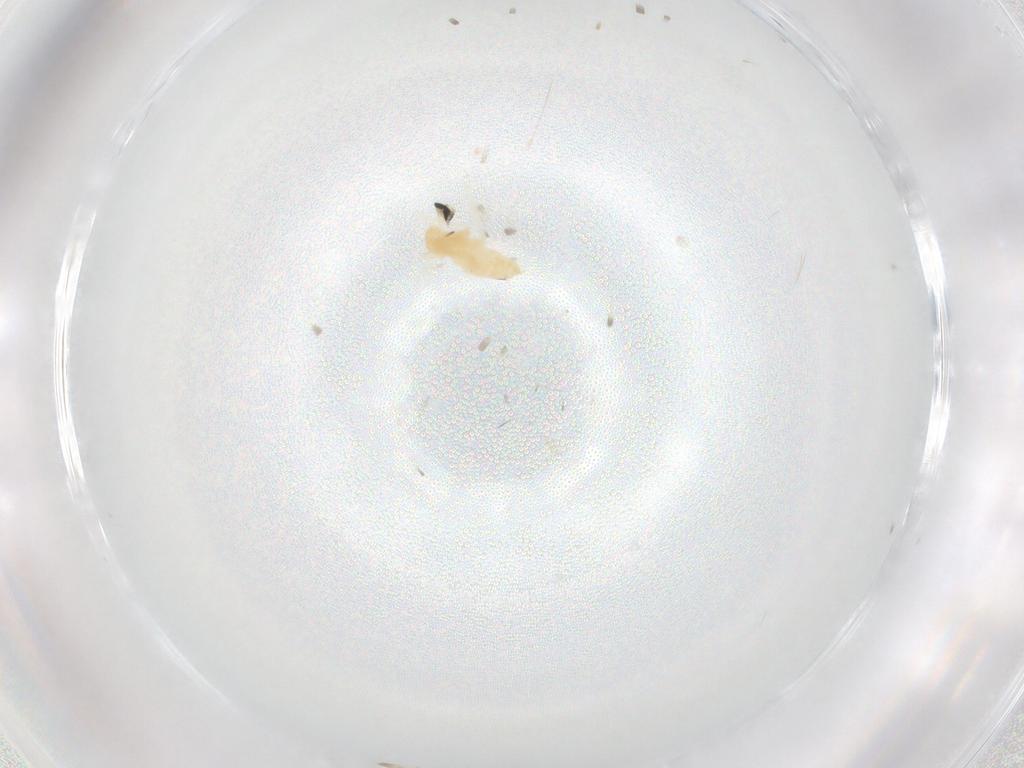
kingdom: Animalia
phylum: Arthropoda
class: Insecta
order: Diptera
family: Cecidomyiidae
